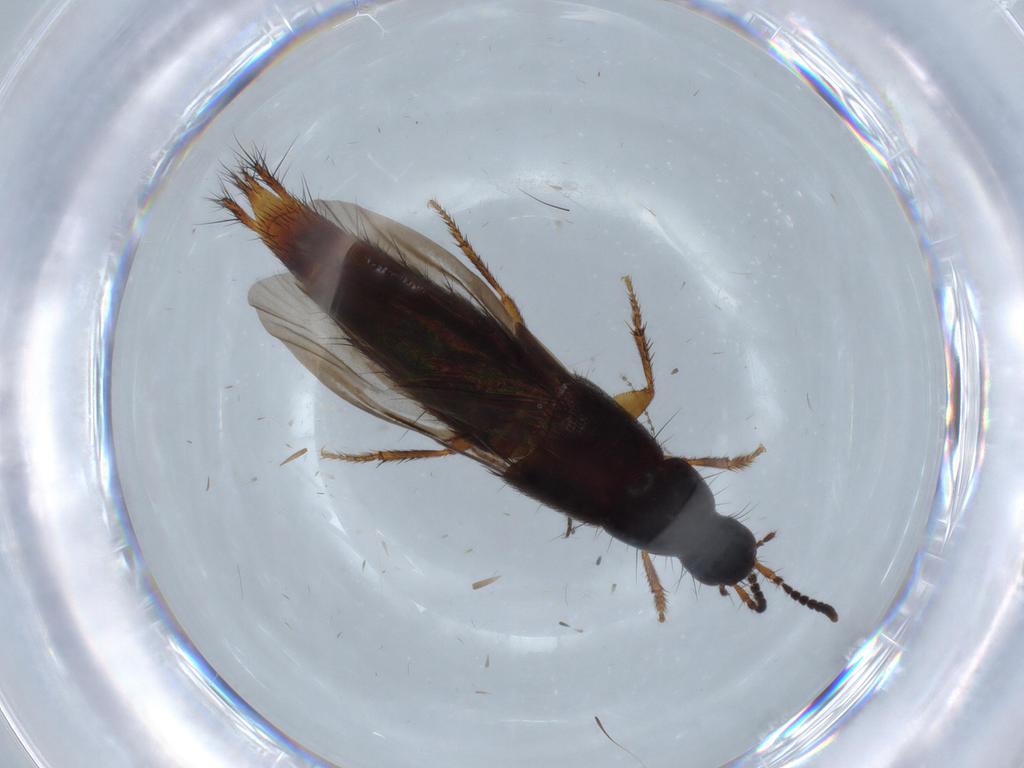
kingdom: Animalia
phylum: Arthropoda
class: Insecta
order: Coleoptera
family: Staphylinidae
